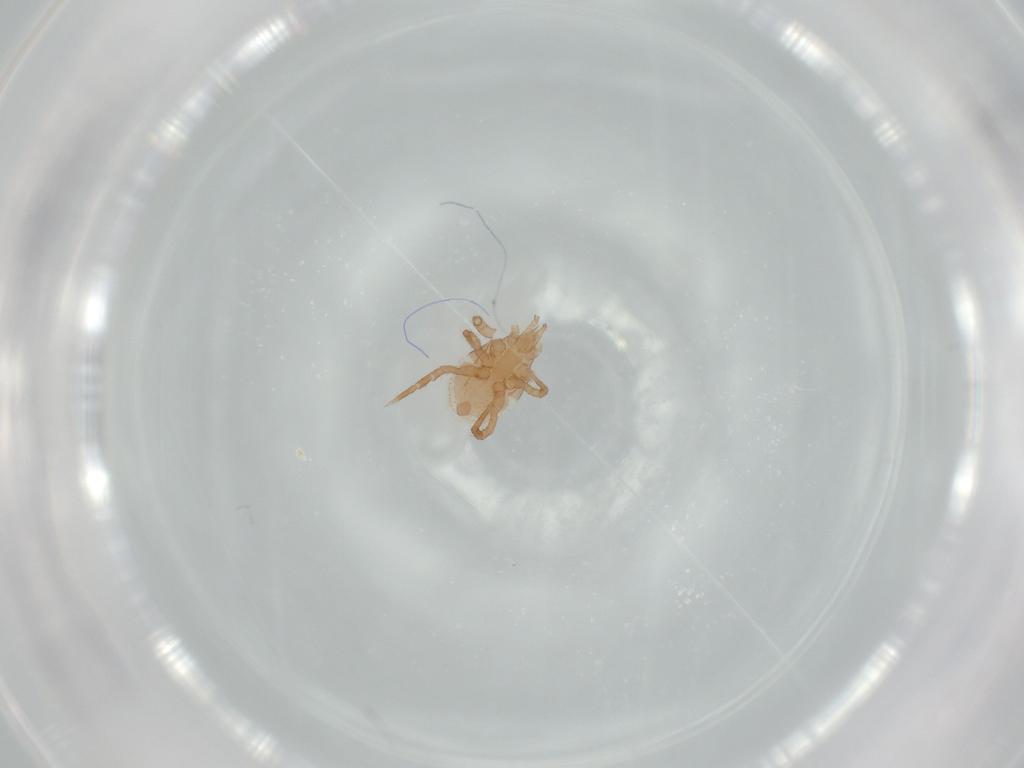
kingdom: Animalia
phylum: Arthropoda
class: Arachnida
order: Mesostigmata
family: Parasitidae
